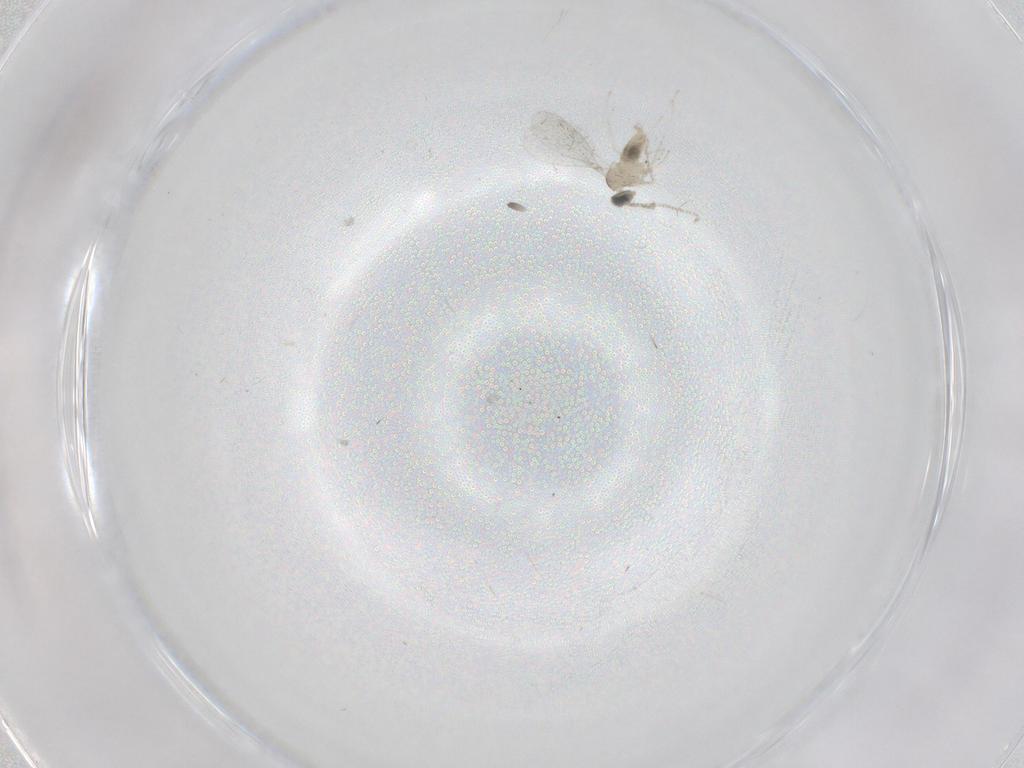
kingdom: Animalia
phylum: Arthropoda
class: Insecta
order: Diptera
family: Cecidomyiidae
